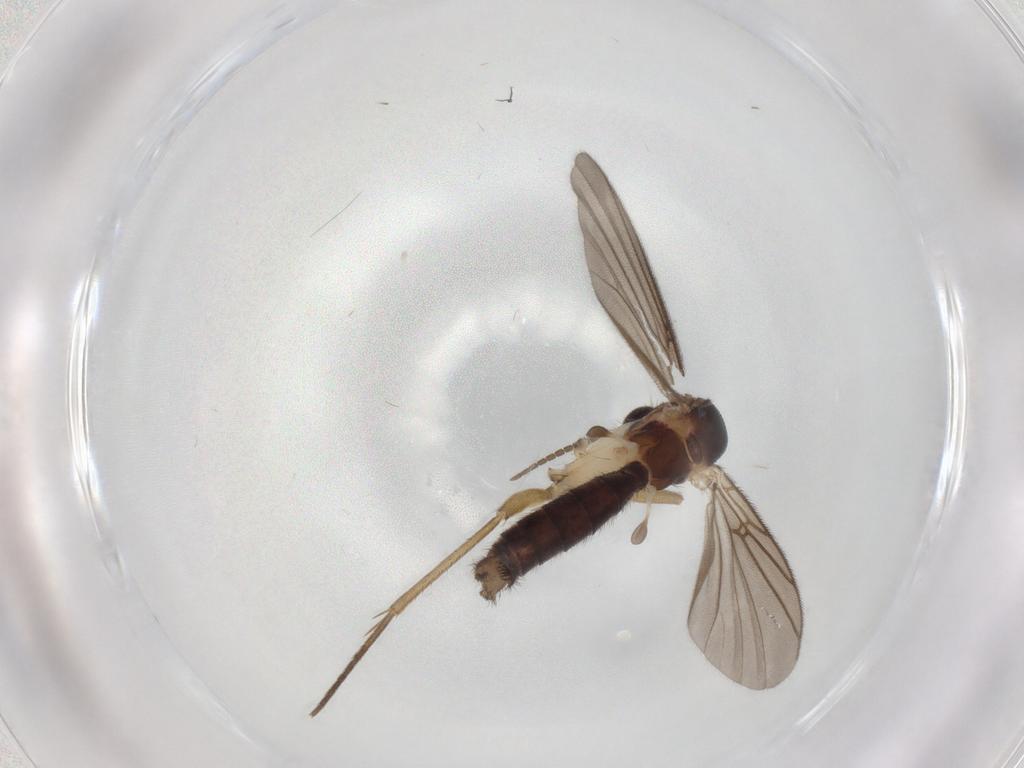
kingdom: Animalia
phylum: Arthropoda
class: Insecta
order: Diptera
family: Mycetophilidae
